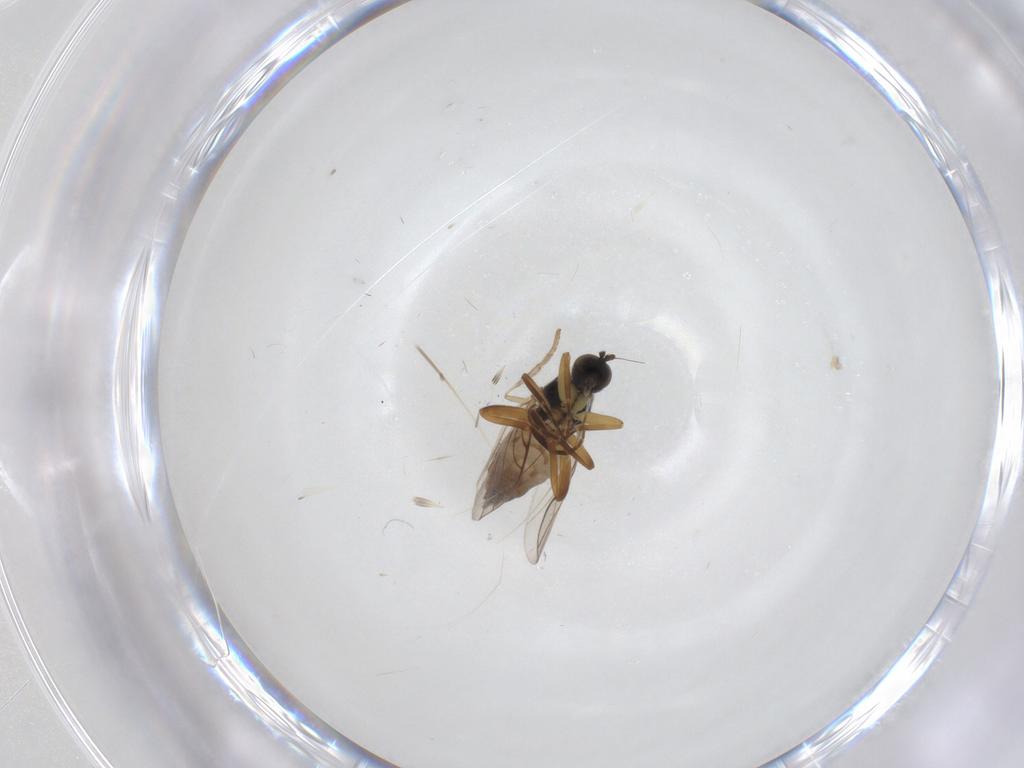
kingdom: Animalia
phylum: Arthropoda
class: Insecta
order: Diptera
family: Hybotidae
